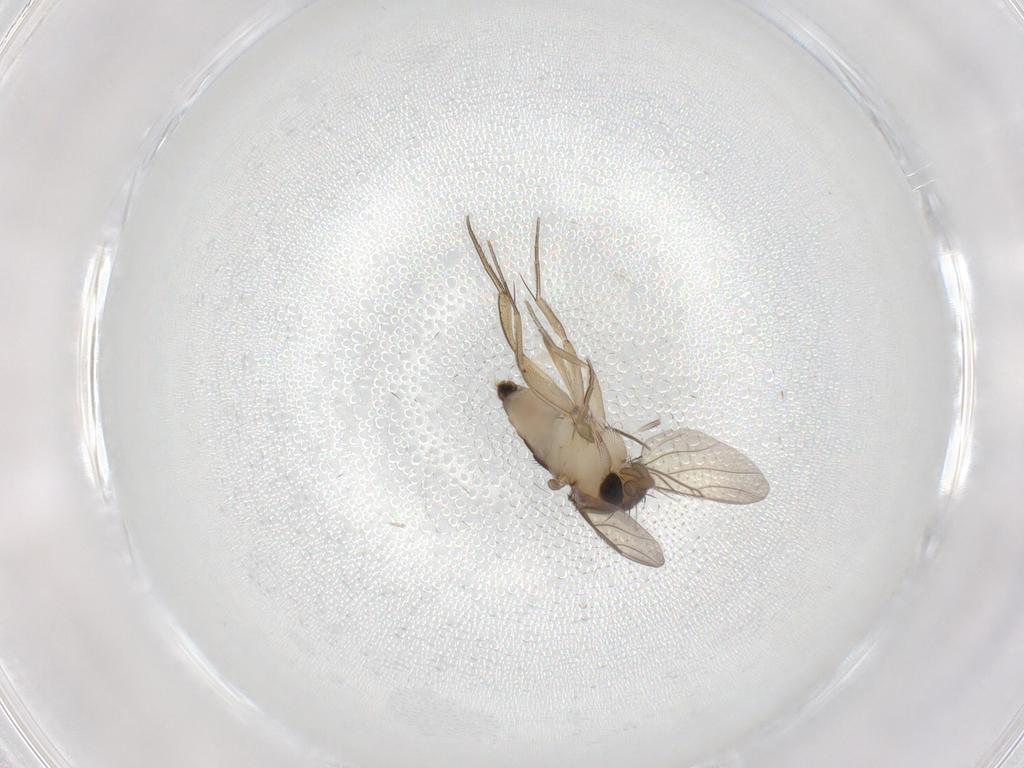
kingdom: Animalia
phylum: Arthropoda
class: Insecta
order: Diptera
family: Phoridae
